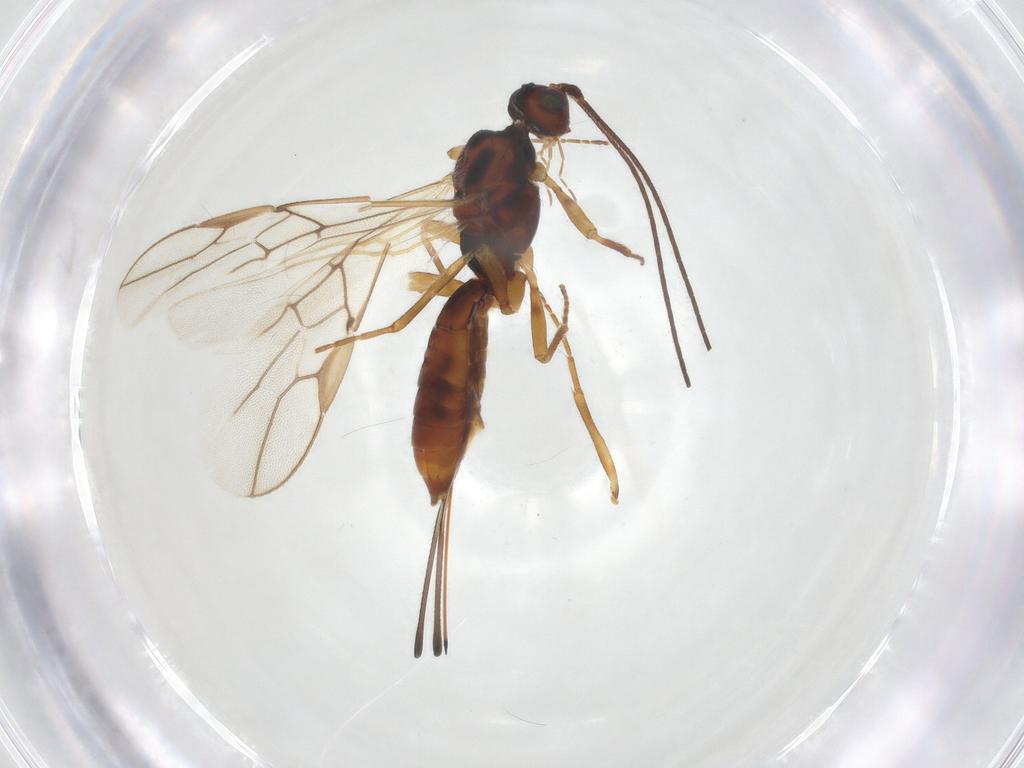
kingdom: Animalia
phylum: Arthropoda
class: Insecta
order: Hymenoptera
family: Braconidae
